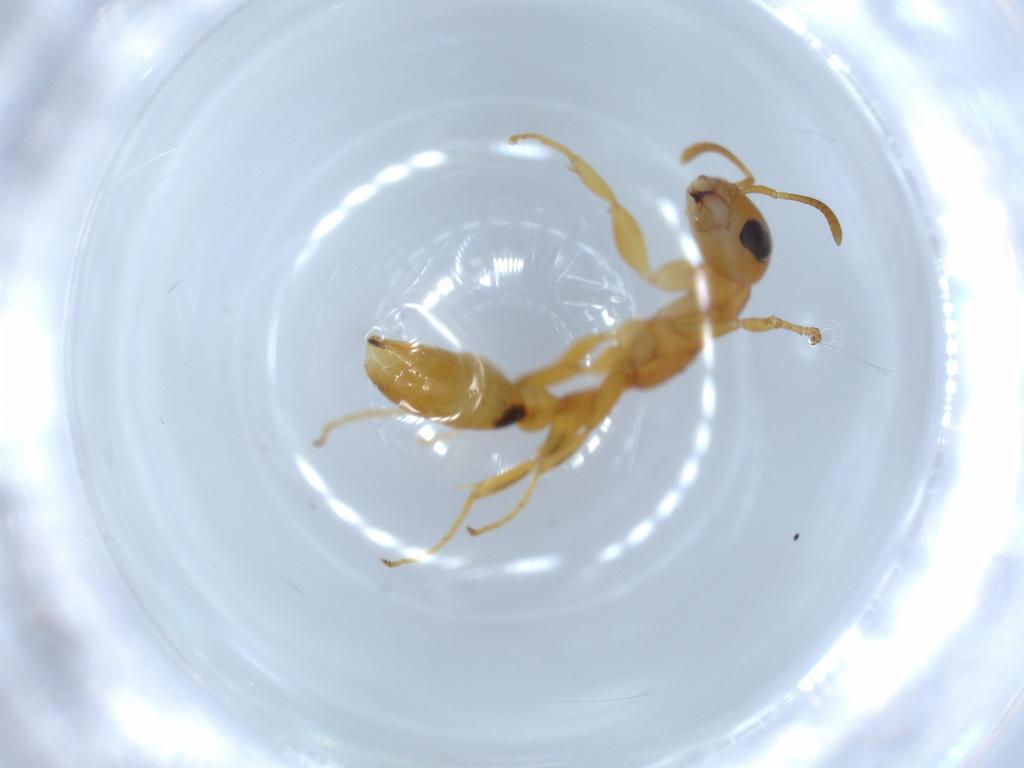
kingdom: Animalia
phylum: Arthropoda
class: Insecta
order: Hymenoptera
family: Formicidae
